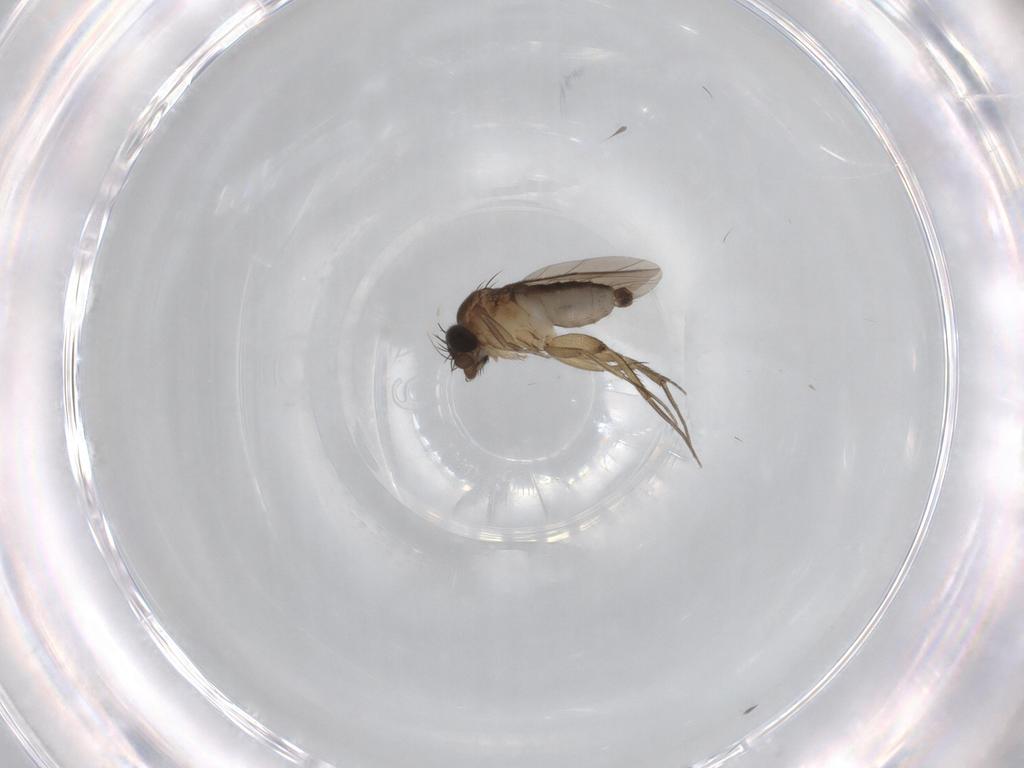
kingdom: Animalia
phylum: Arthropoda
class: Insecta
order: Diptera
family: Phoridae
